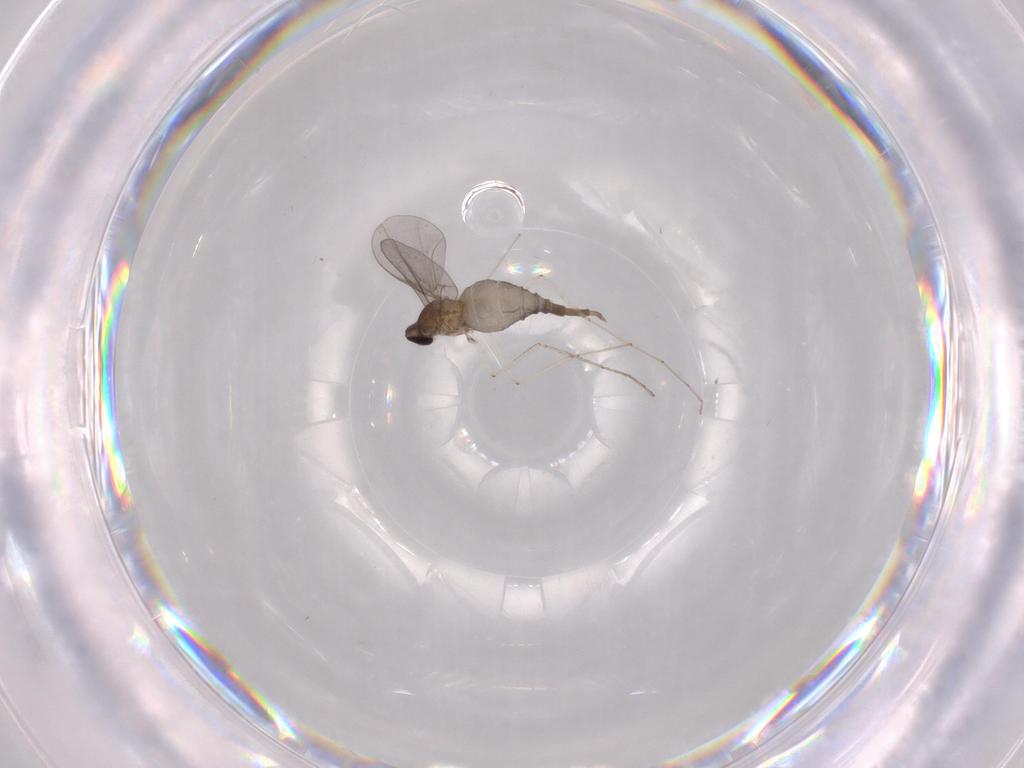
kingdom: Animalia
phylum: Arthropoda
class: Insecta
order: Diptera
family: Cecidomyiidae
